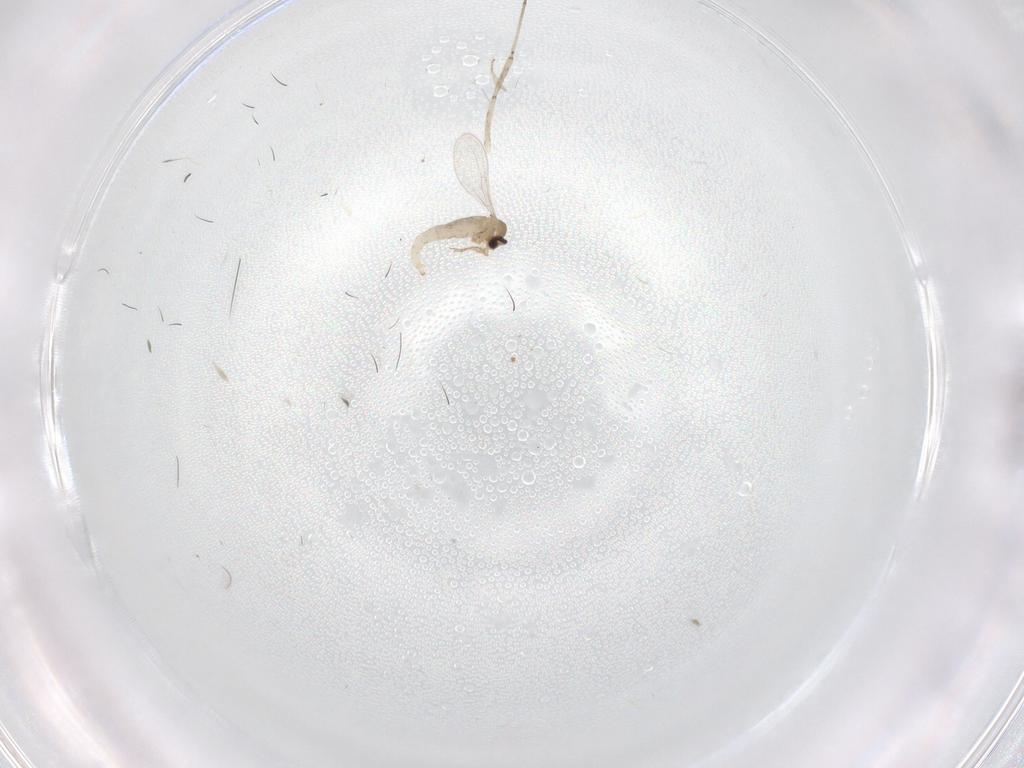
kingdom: Animalia
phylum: Arthropoda
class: Insecta
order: Diptera
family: Cecidomyiidae
